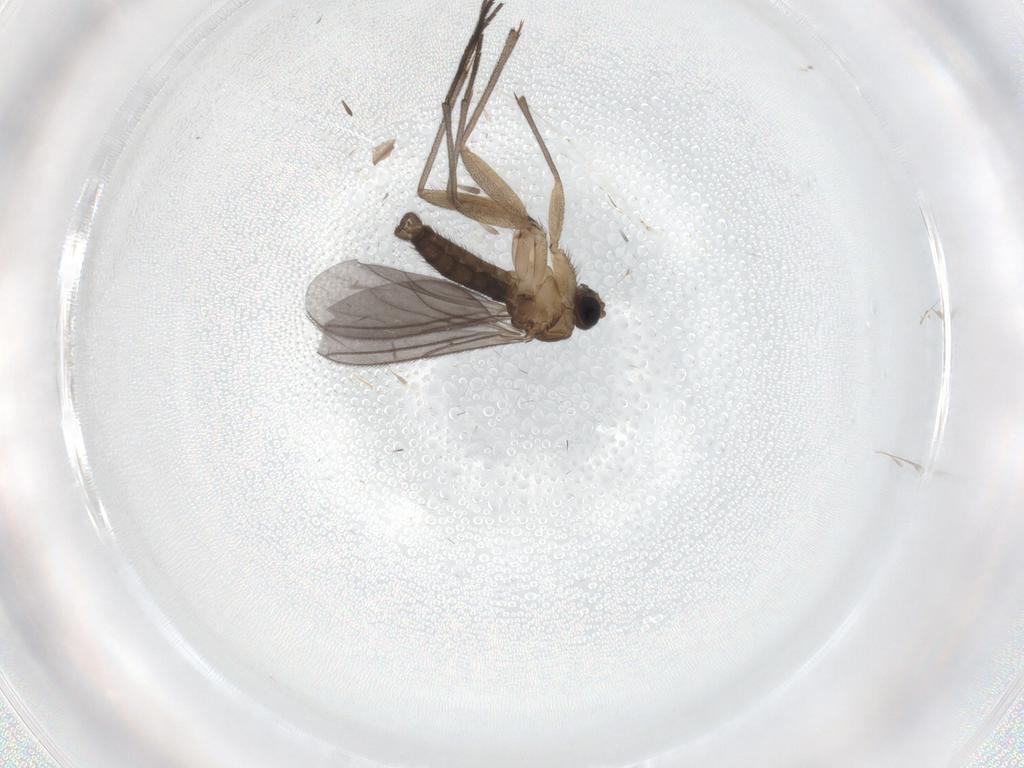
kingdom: Animalia
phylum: Arthropoda
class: Insecta
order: Diptera
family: Sciaridae
